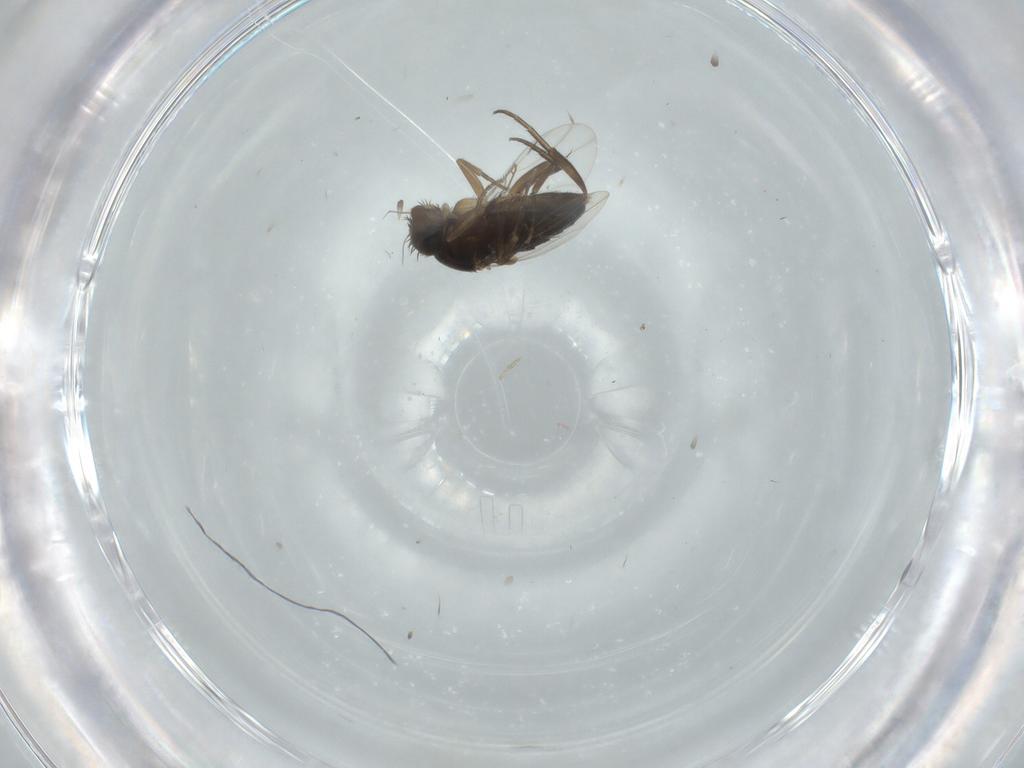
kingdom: Animalia
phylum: Arthropoda
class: Insecta
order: Diptera
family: Phoridae
